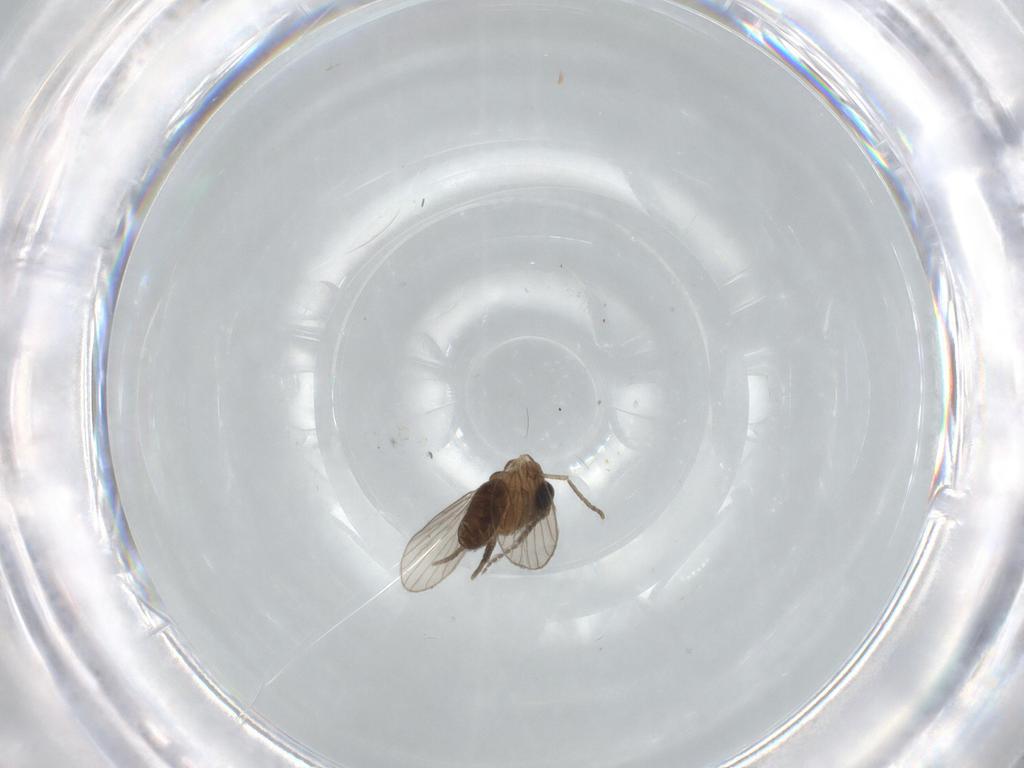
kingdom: Animalia
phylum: Arthropoda
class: Insecta
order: Diptera
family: Psychodidae
